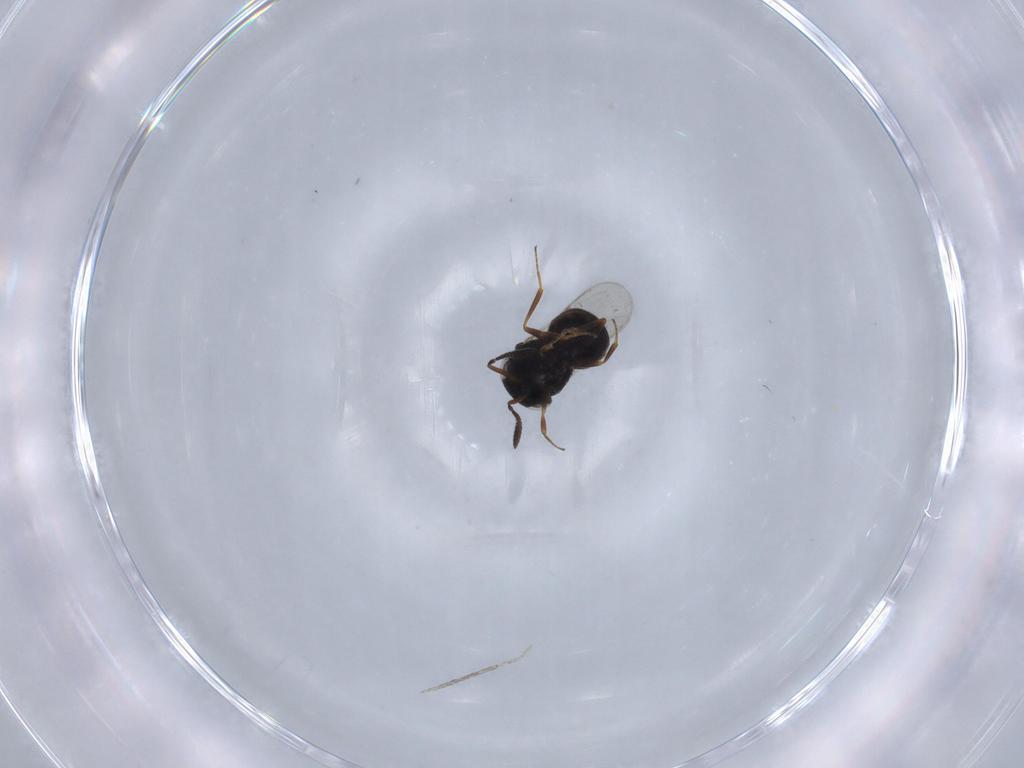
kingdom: Animalia
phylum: Arthropoda
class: Insecta
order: Hymenoptera
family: Scelionidae
